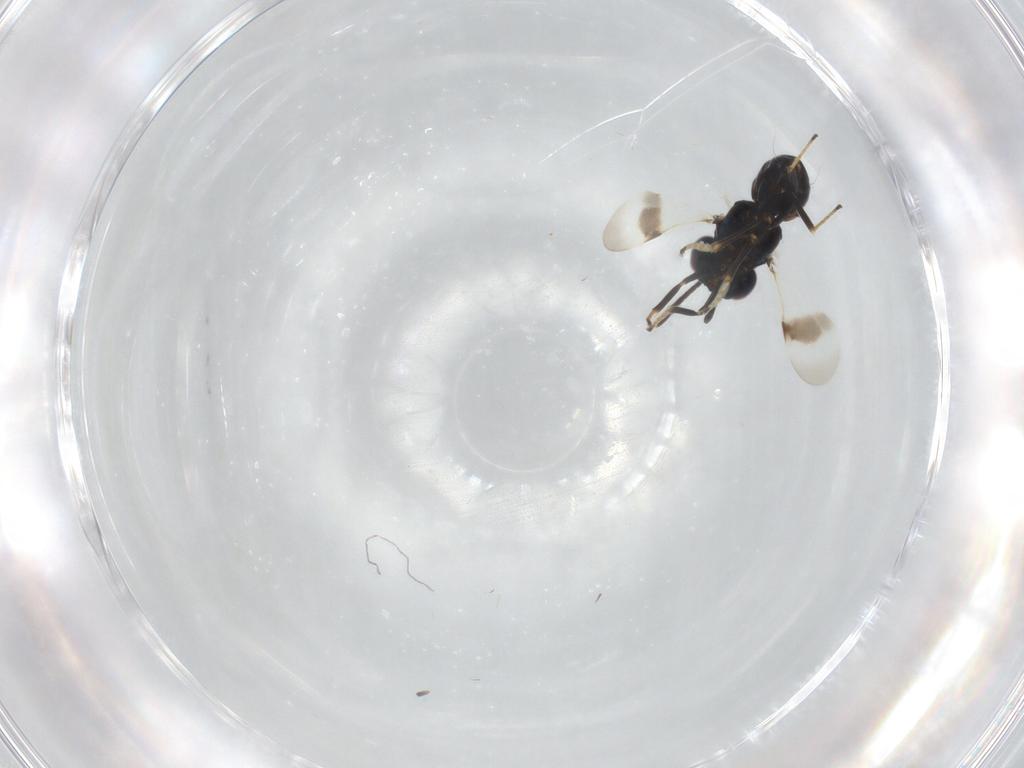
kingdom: Animalia
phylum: Arthropoda
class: Insecta
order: Hymenoptera
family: Encyrtidae
